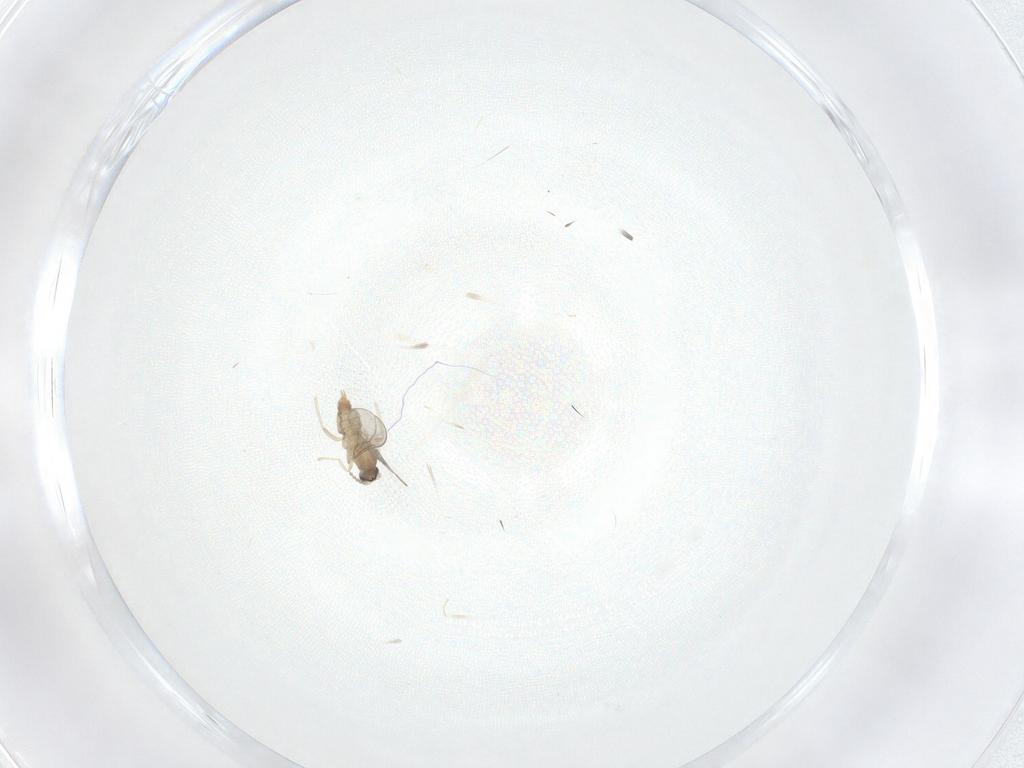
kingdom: Animalia
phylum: Arthropoda
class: Insecta
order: Diptera
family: Cecidomyiidae
